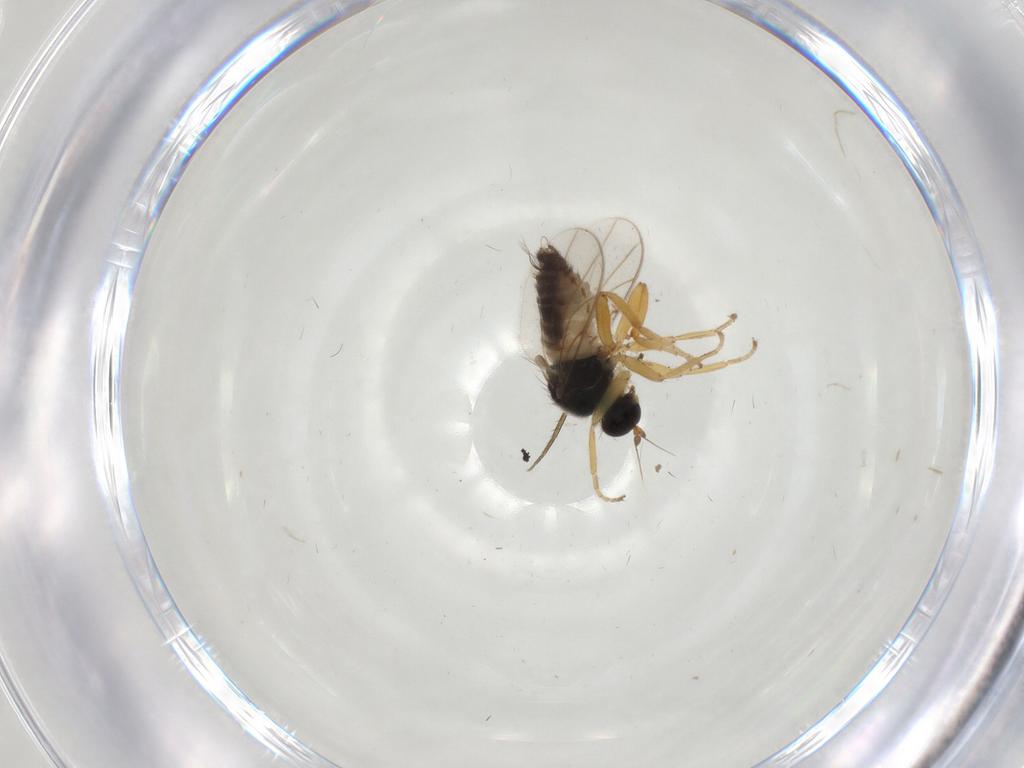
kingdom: Animalia
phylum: Arthropoda
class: Insecta
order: Diptera
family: Hybotidae
